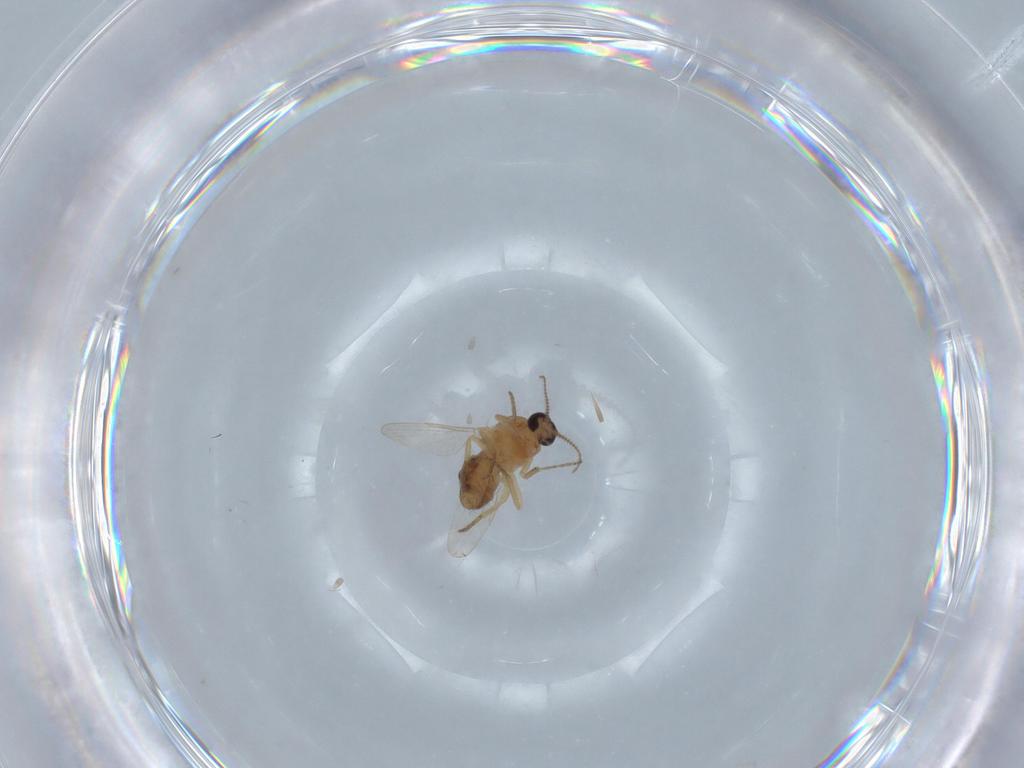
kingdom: Animalia
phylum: Arthropoda
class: Insecta
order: Diptera
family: Ceratopogonidae
